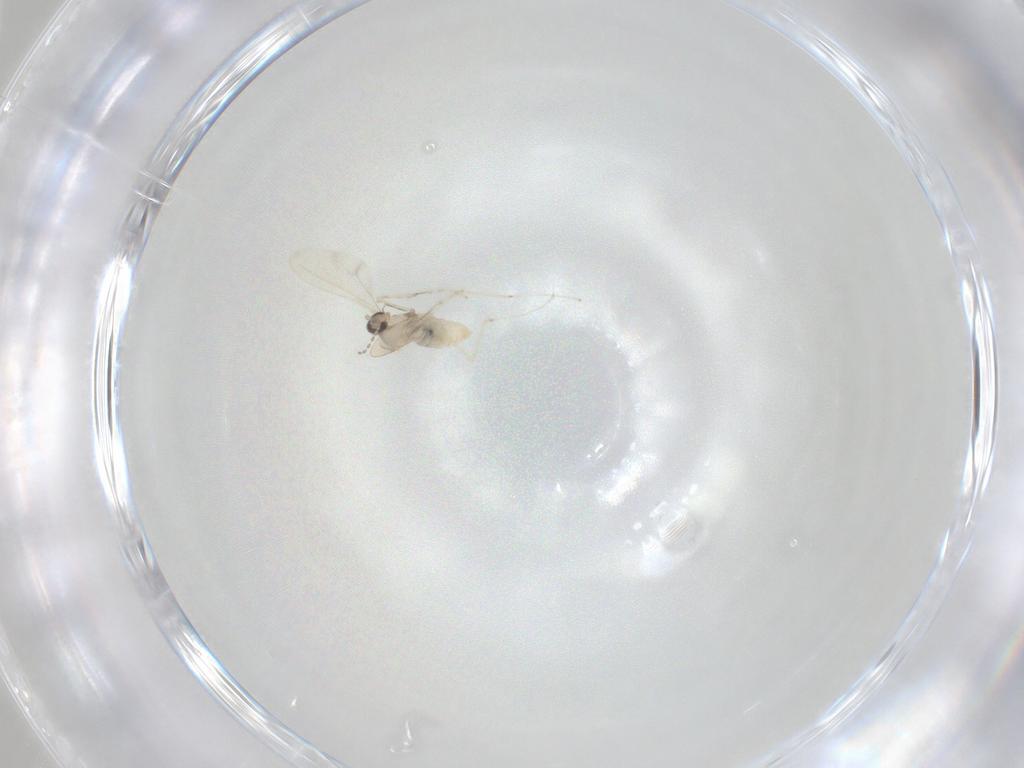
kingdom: Animalia
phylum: Arthropoda
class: Insecta
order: Diptera
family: Cecidomyiidae
